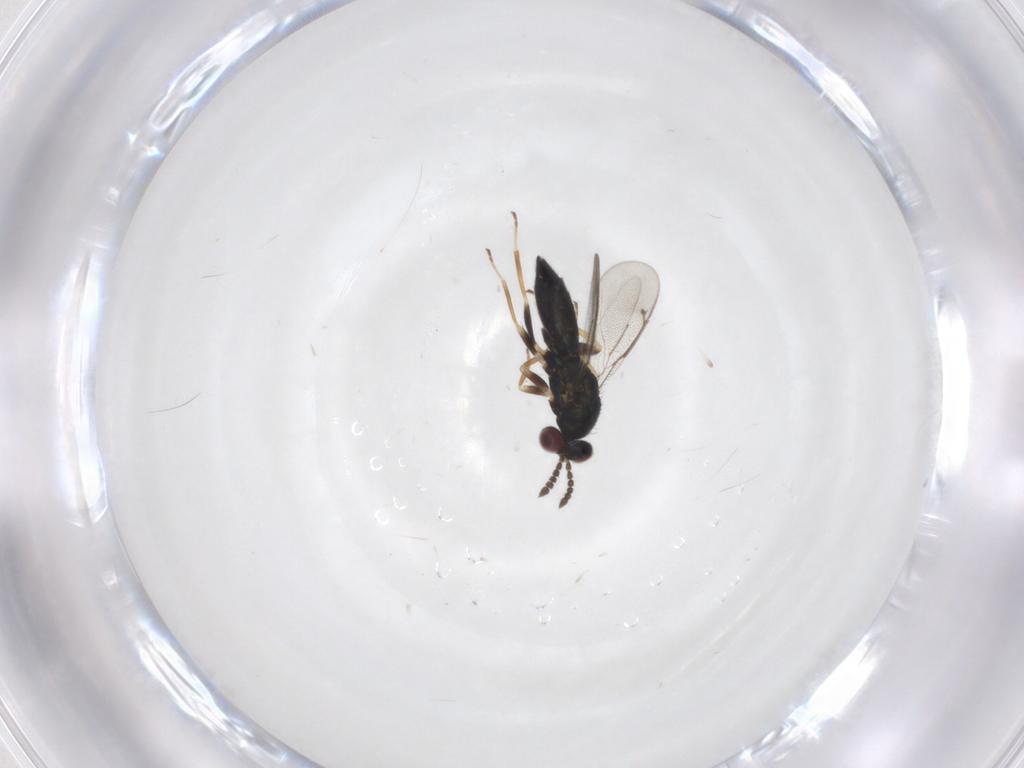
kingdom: Animalia
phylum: Arthropoda
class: Insecta
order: Hymenoptera
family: Eulophidae
